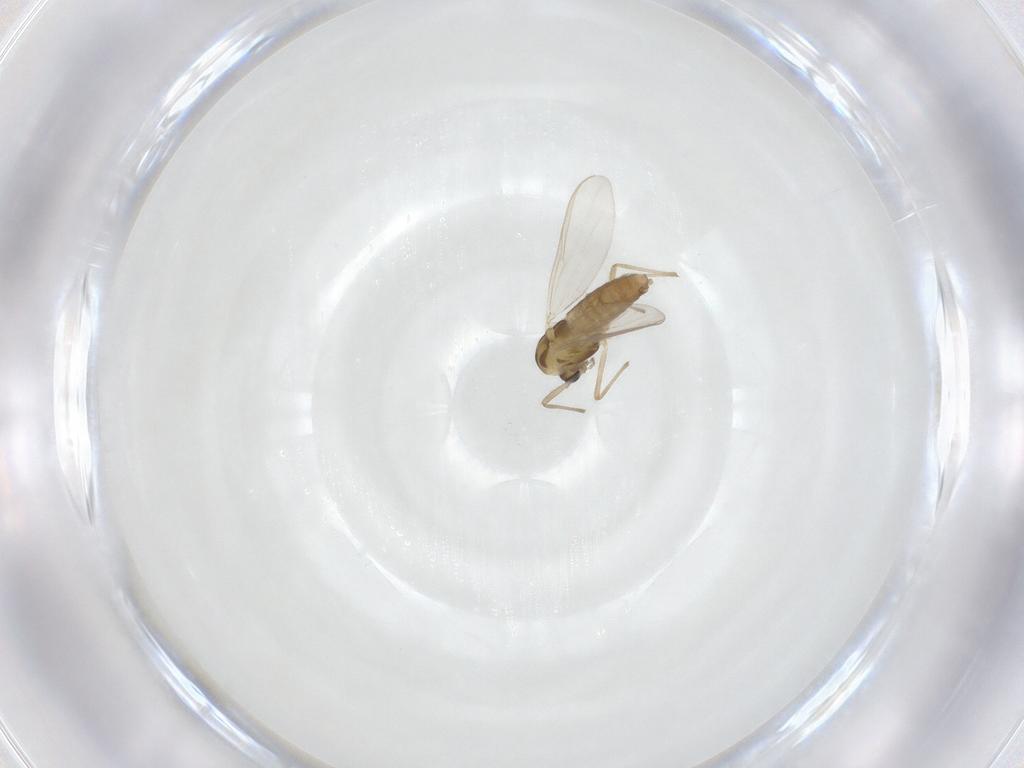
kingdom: Animalia
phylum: Arthropoda
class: Insecta
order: Diptera
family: Chironomidae
